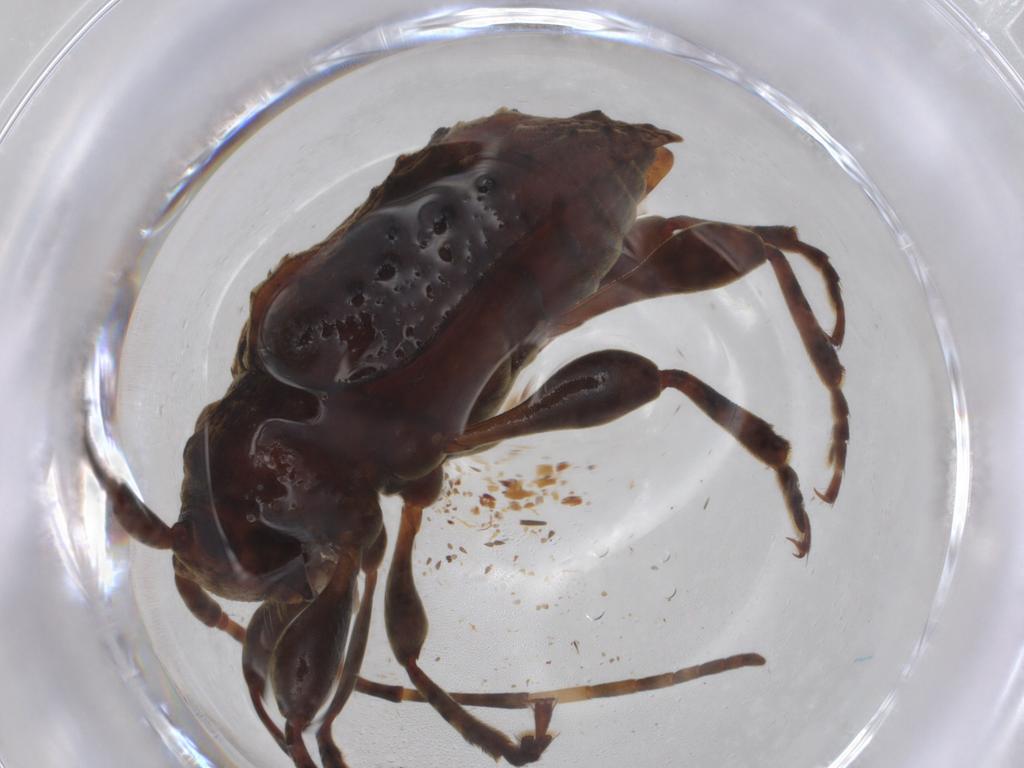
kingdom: Animalia
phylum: Arthropoda
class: Insecta
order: Coleoptera
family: Cerambycidae
